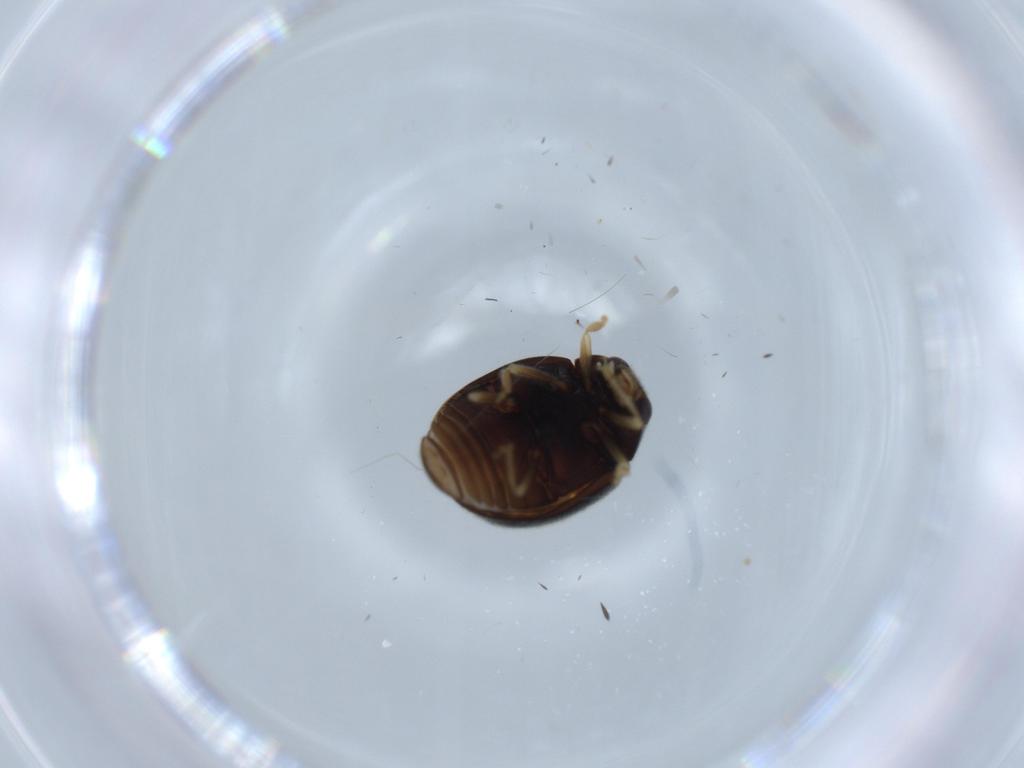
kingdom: Animalia
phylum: Arthropoda
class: Insecta
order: Coleoptera
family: Coccinellidae
